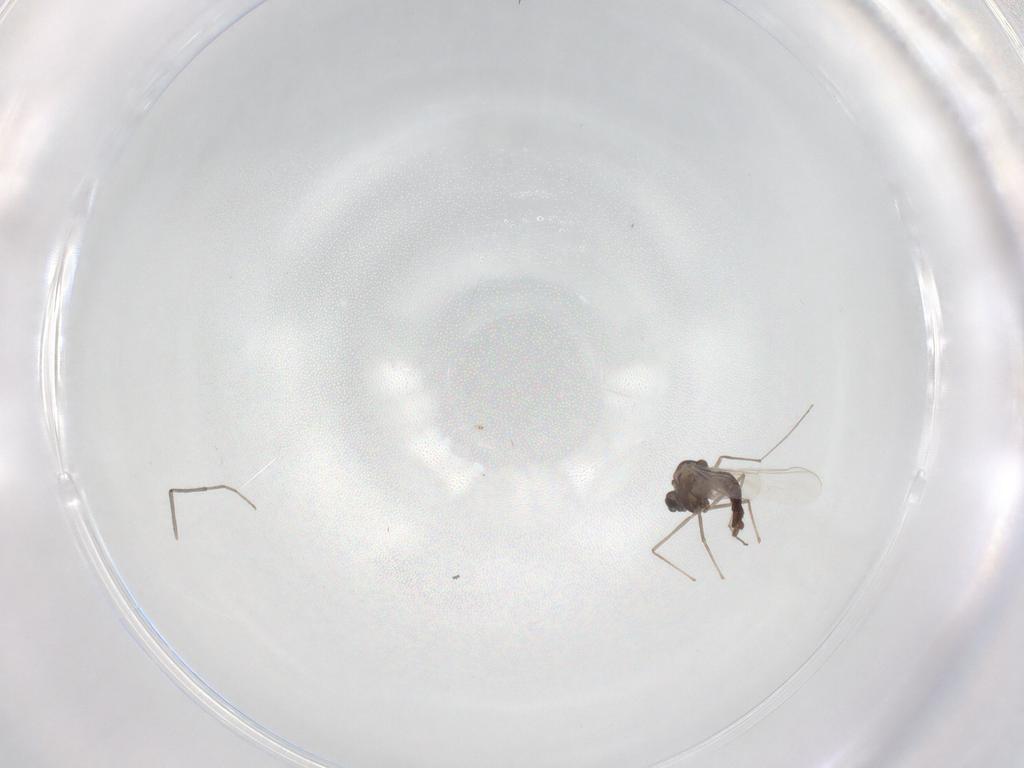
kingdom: Animalia
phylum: Arthropoda
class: Insecta
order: Diptera
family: Chironomidae
